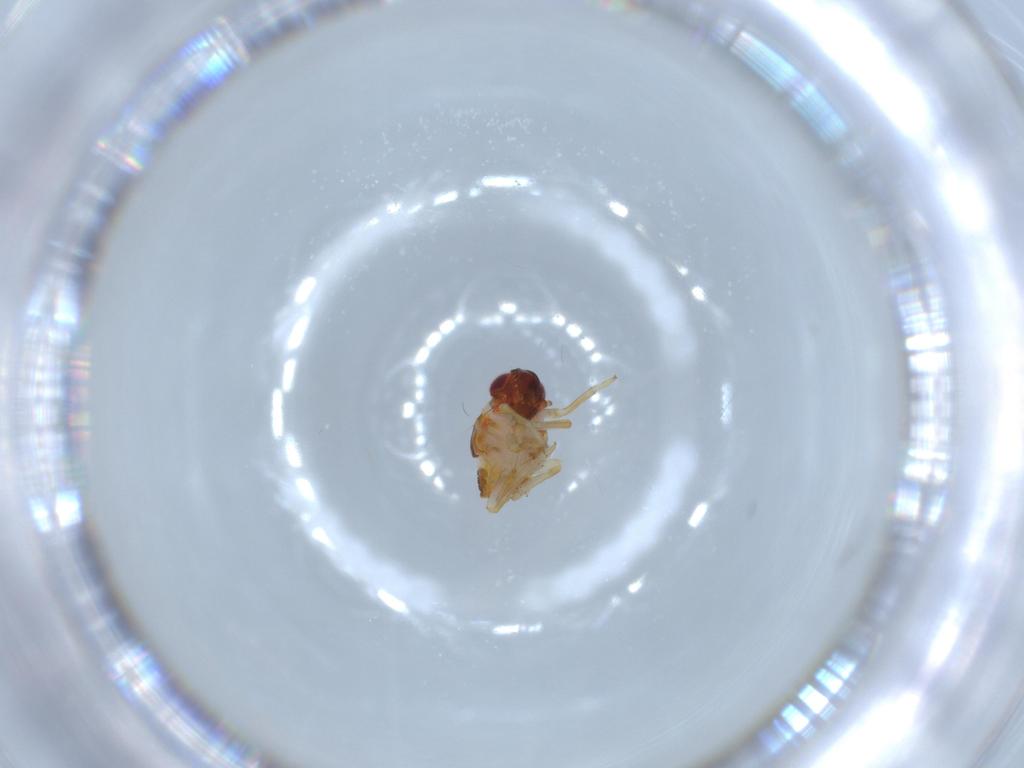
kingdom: Animalia
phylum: Arthropoda
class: Insecta
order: Hemiptera
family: Issidae
